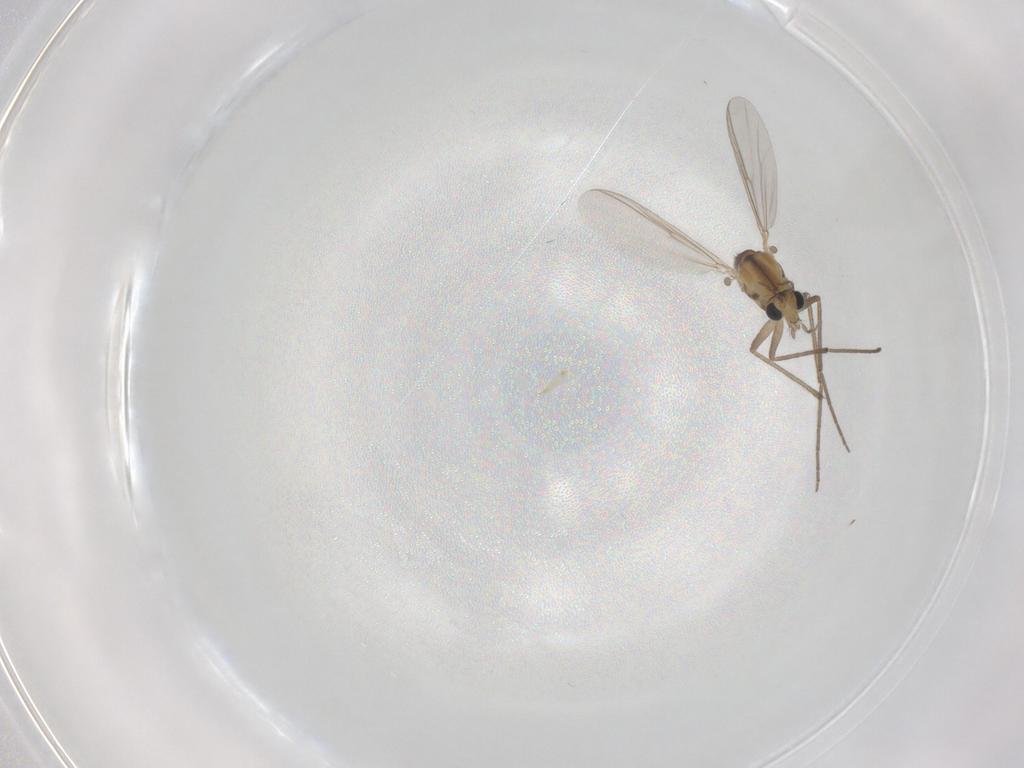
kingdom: Animalia
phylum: Arthropoda
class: Insecta
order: Diptera
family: Chironomidae
